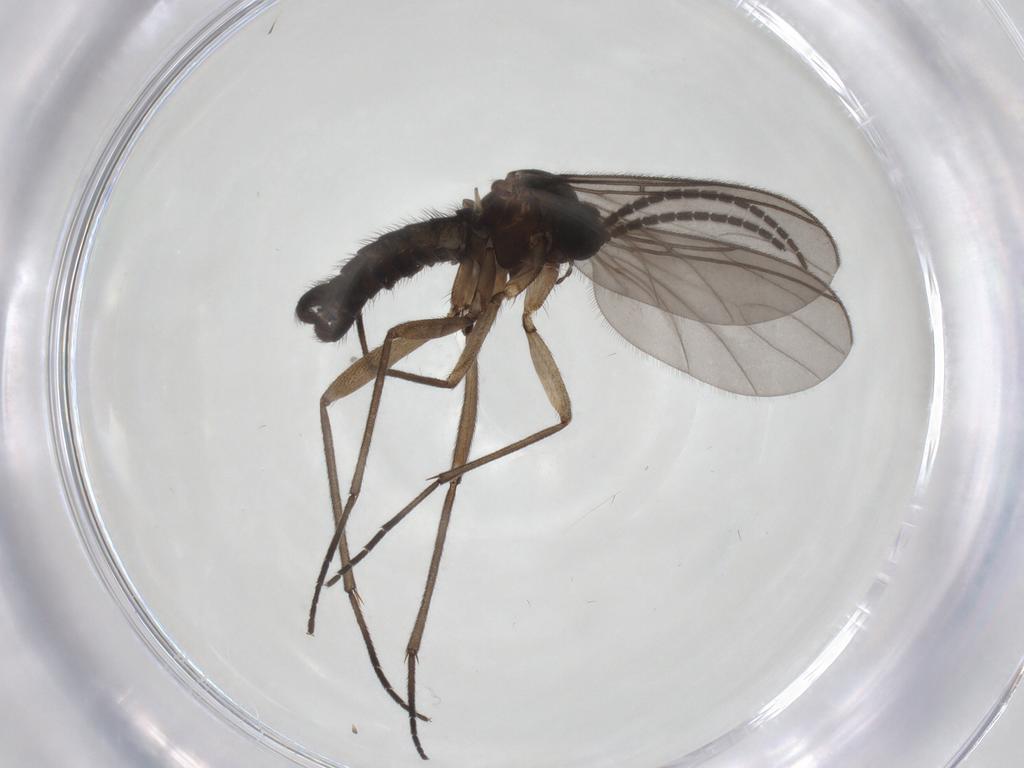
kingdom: Animalia
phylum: Arthropoda
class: Insecta
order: Diptera
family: Sciaridae
